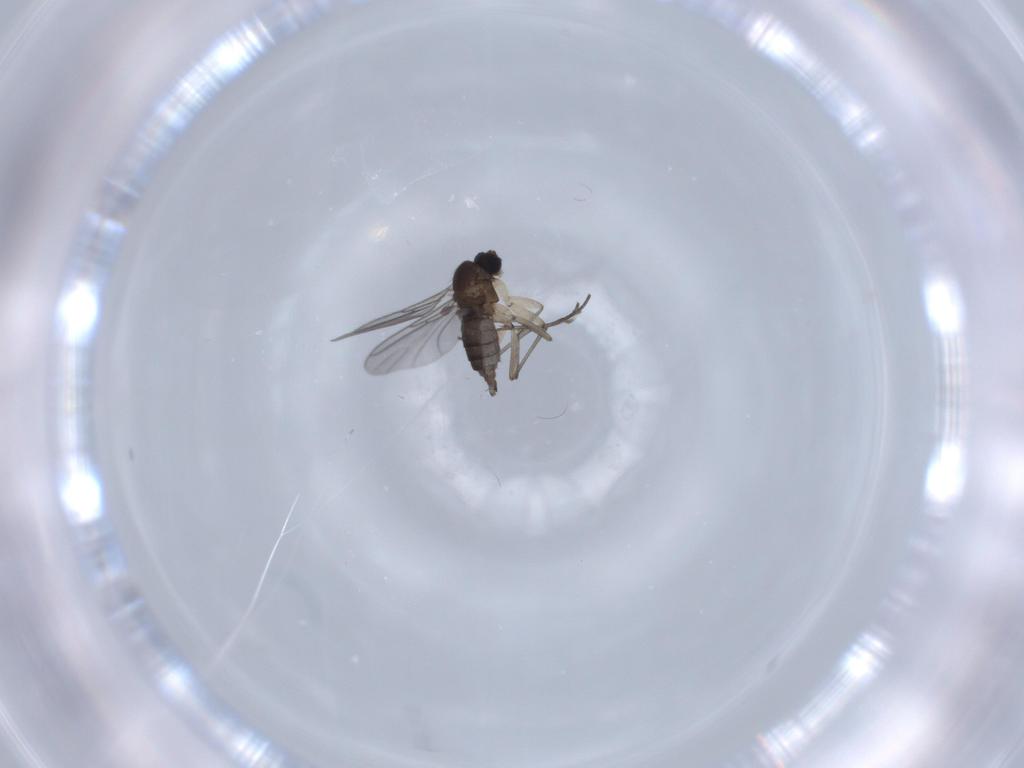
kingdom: Animalia
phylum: Arthropoda
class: Insecta
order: Diptera
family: Sciaridae
